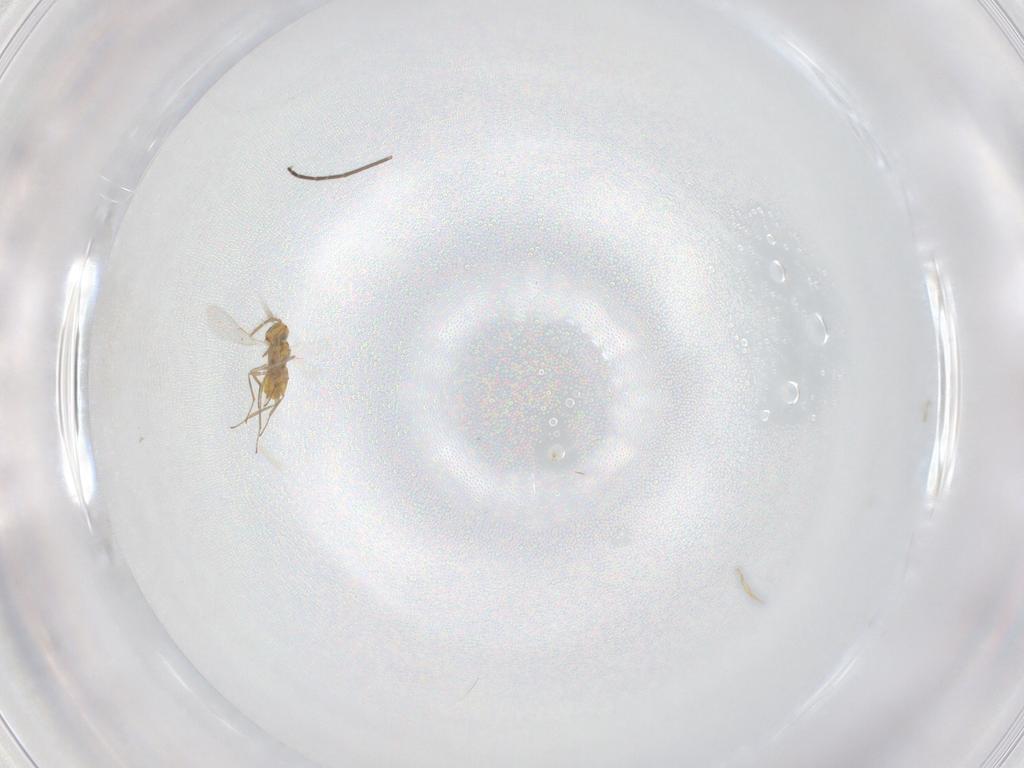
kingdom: Animalia
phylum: Arthropoda
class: Insecta
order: Hymenoptera
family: Aphelinidae
